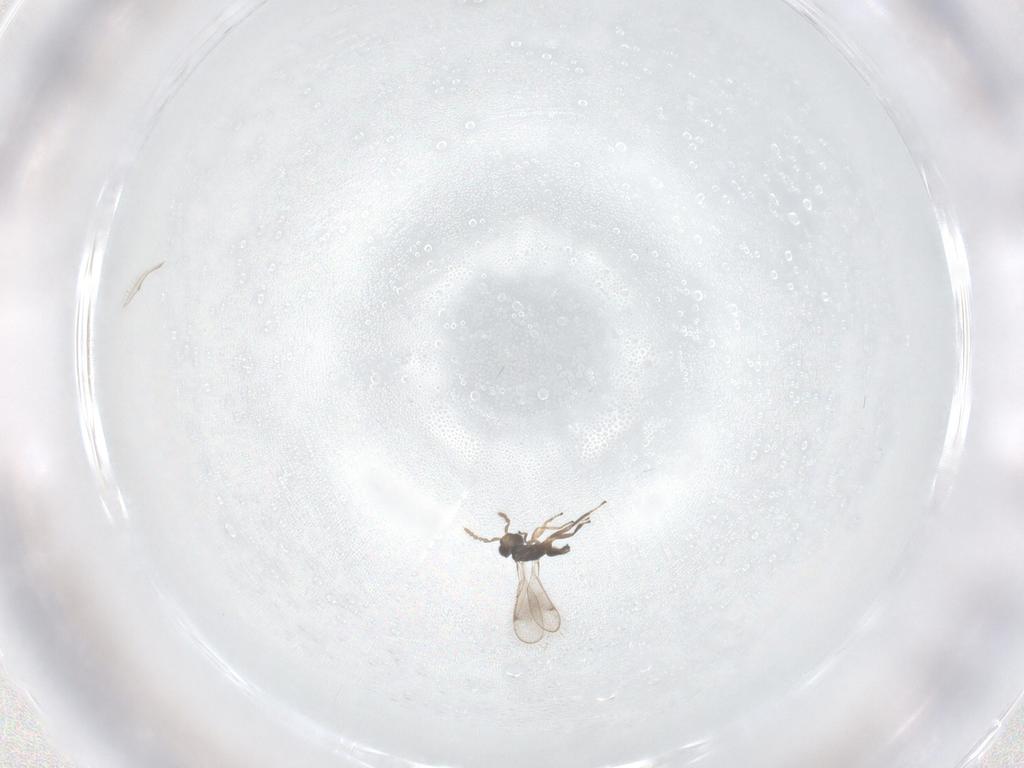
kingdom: Animalia
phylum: Arthropoda
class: Insecta
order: Hymenoptera
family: Eulophidae
